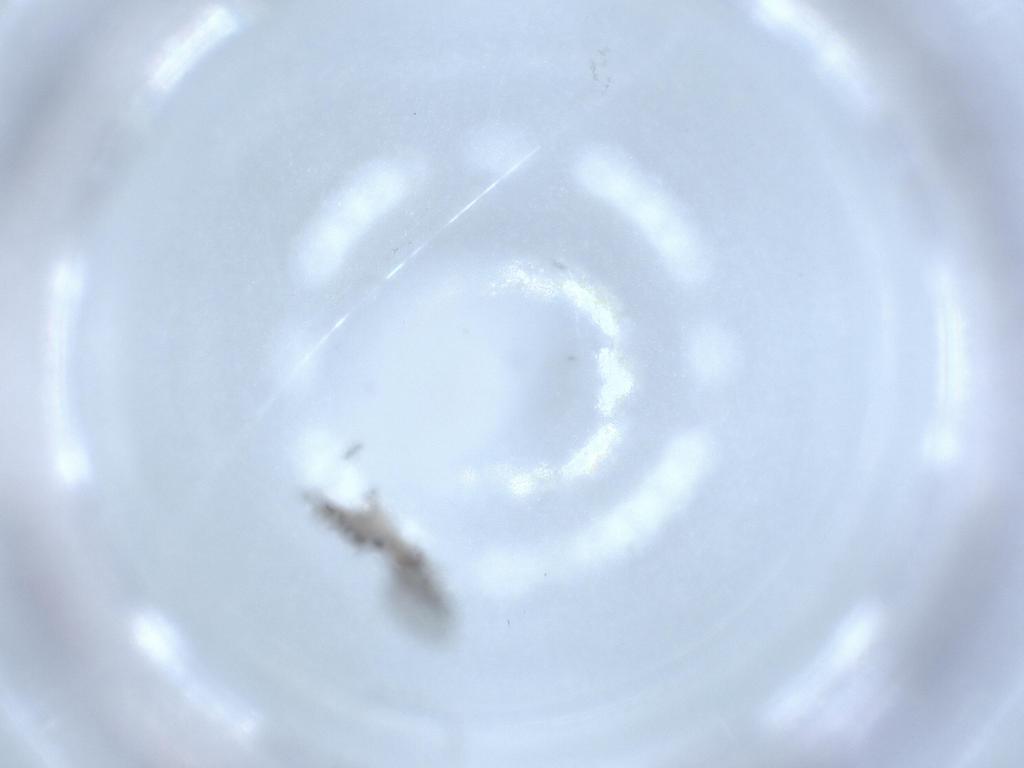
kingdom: Animalia
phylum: Arthropoda
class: Insecta
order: Diptera
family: Sciaridae
